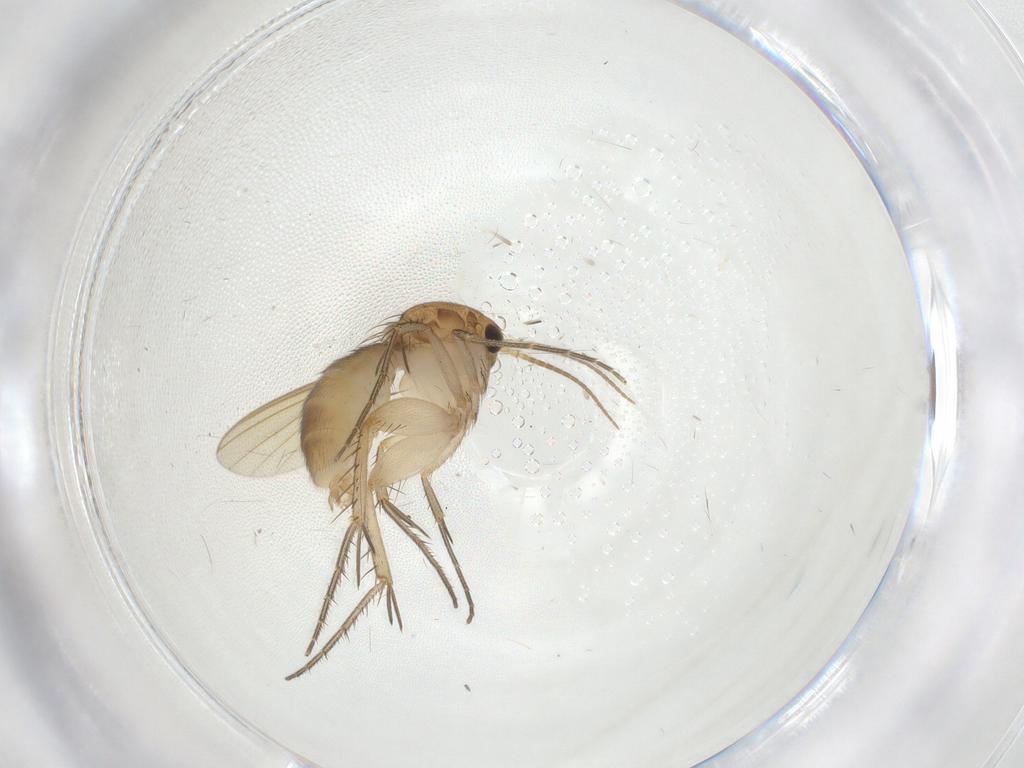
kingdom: Animalia
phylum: Arthropoda
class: Insecta
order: Diptera
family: Mycetophilidae
